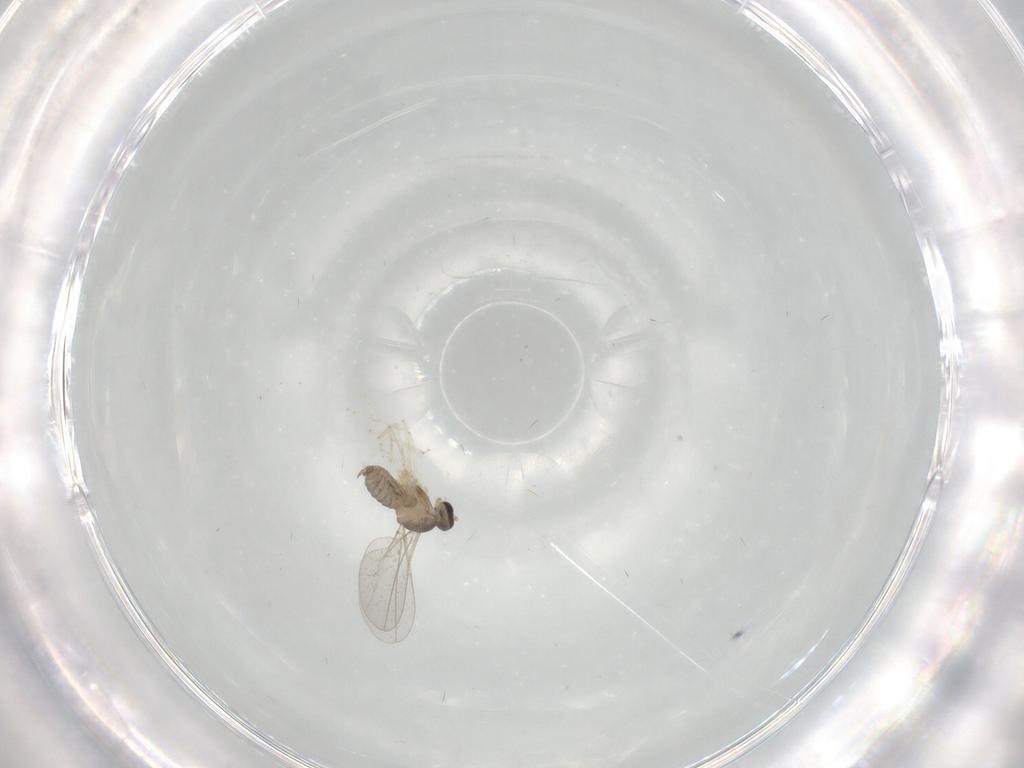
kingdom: Animalia
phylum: Arthropoda
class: Insecta
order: Diptera
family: Cecidomyiidae
